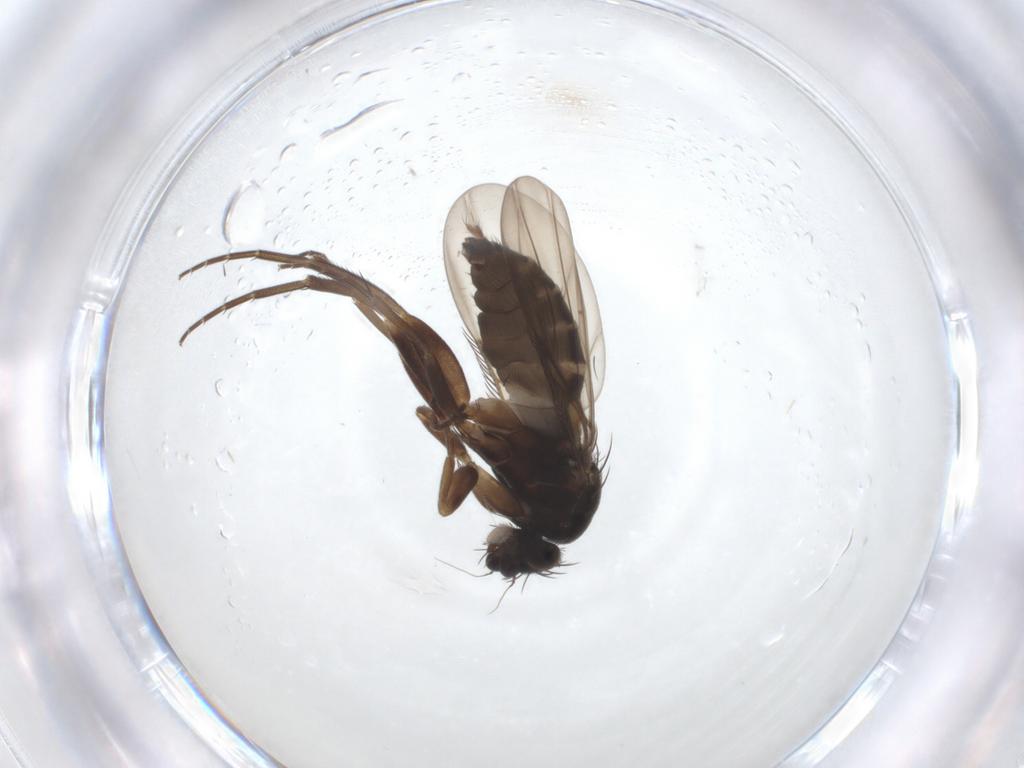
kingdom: Animalia
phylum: Arthropoda
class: Insecta
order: Diptera
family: Phoridae
